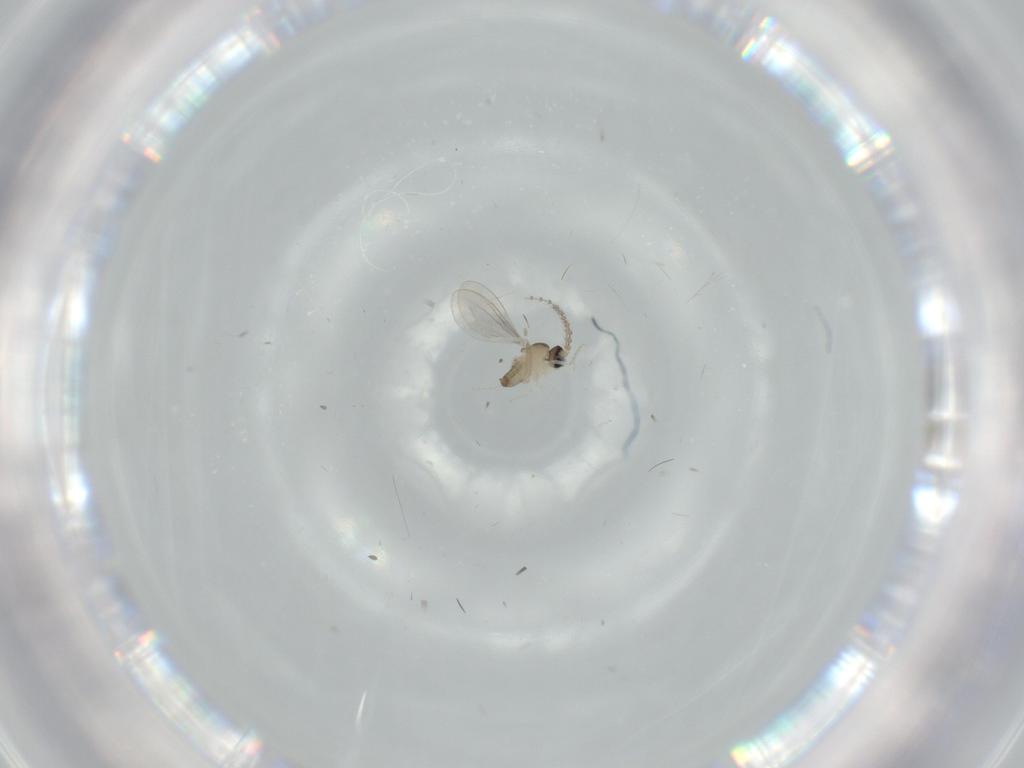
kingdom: Animalia
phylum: Arthropoda
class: Insecta
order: Diptera
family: Cecidomyiidae
